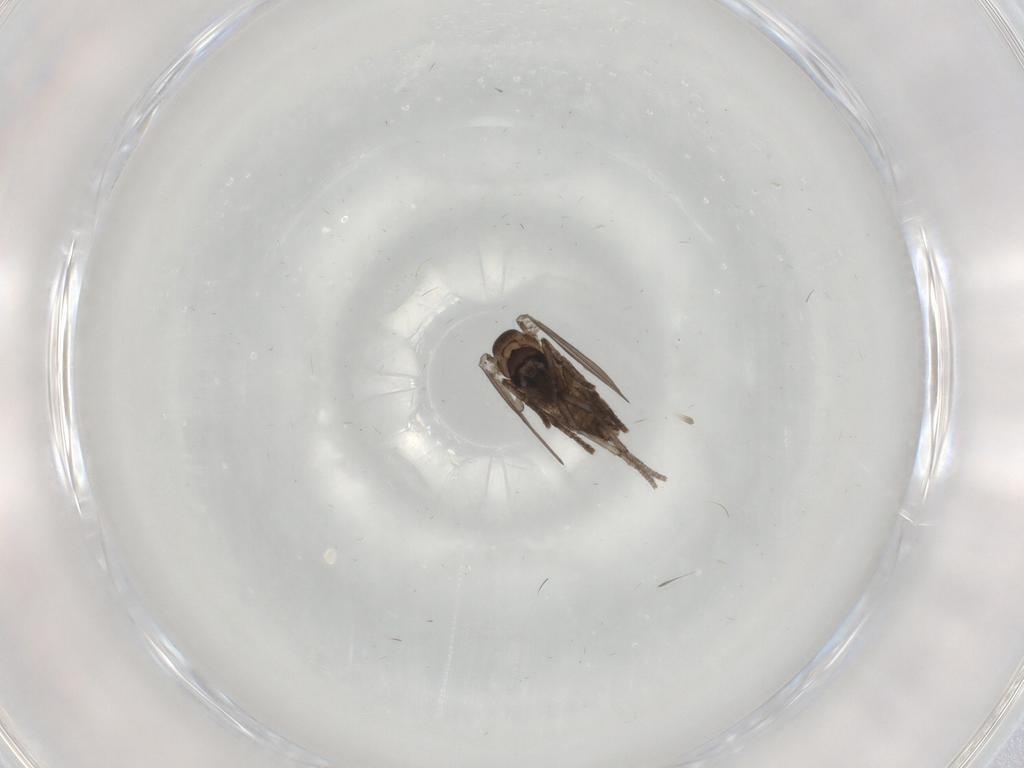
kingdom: Animalia
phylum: Arthropoda
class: Insecta
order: Diptera
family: Psychodidae
